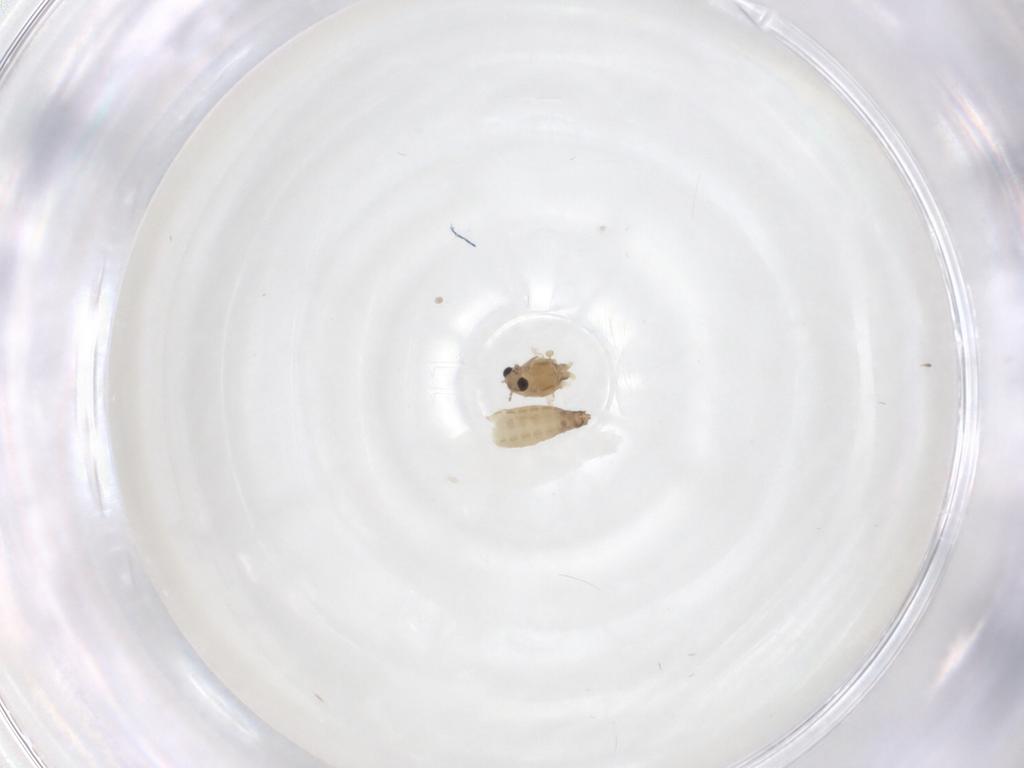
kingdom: Animalia
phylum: Arthropoda
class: Insecta
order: Diptera
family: Chironomidae
